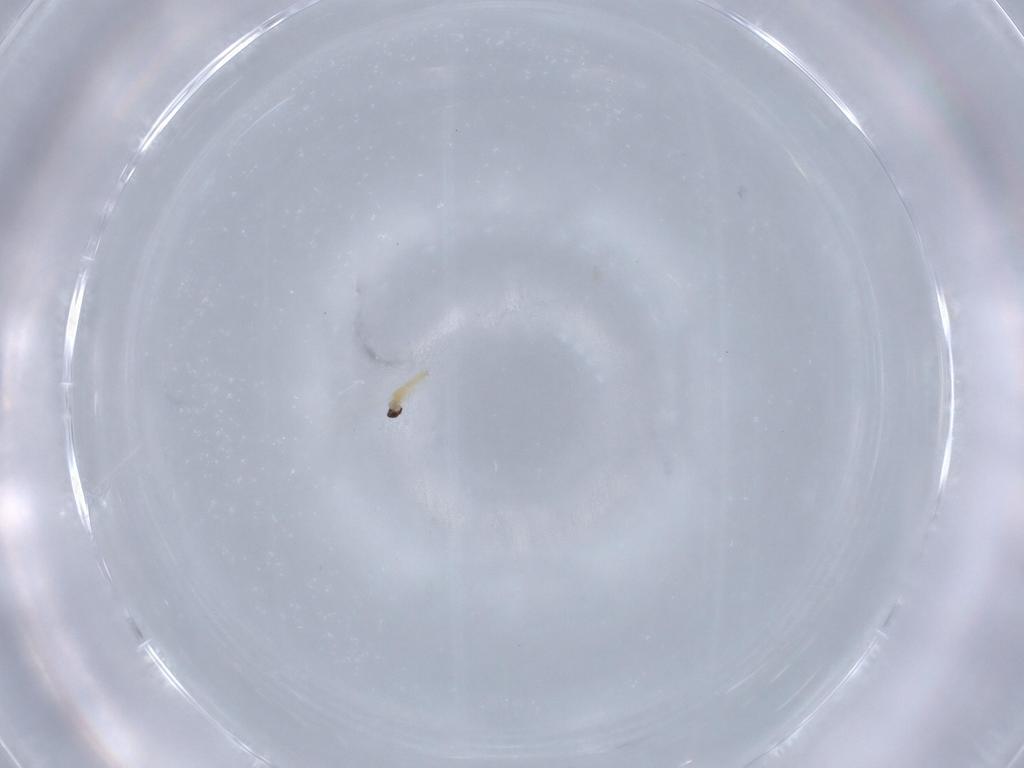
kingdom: Animalia
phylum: Arthropoda
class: Insecta
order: Diptera
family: Cecidomyiidae
